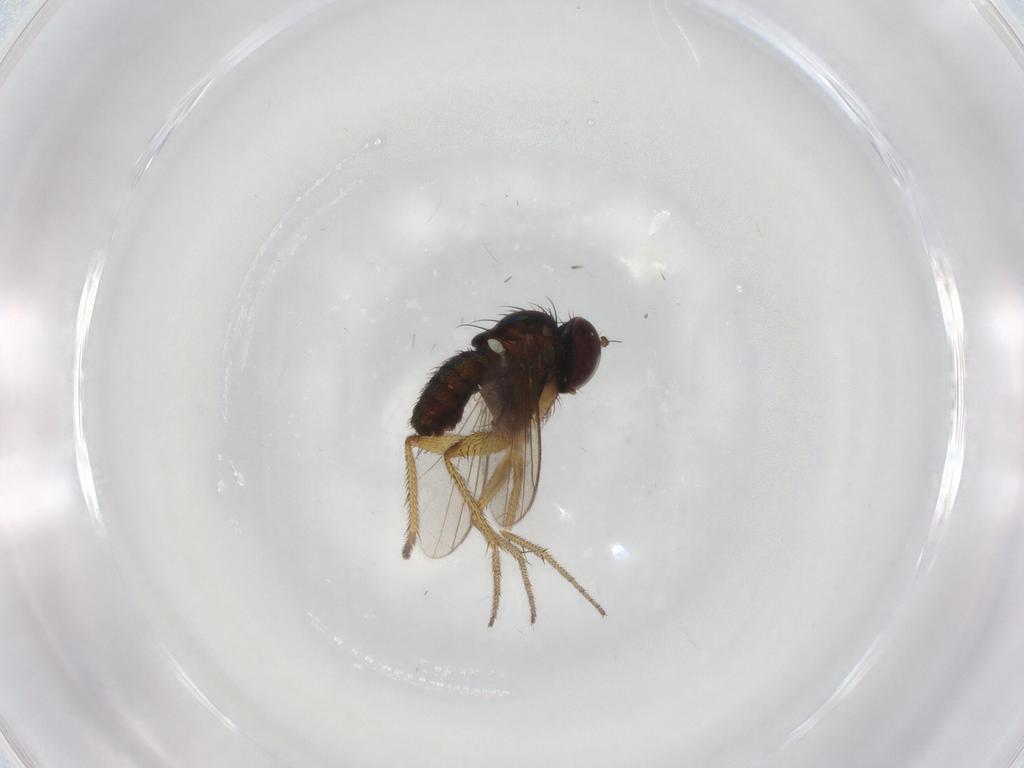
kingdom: Animalia
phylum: Arthropoda
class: Insecta
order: Diptera
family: Dolichopodidae
